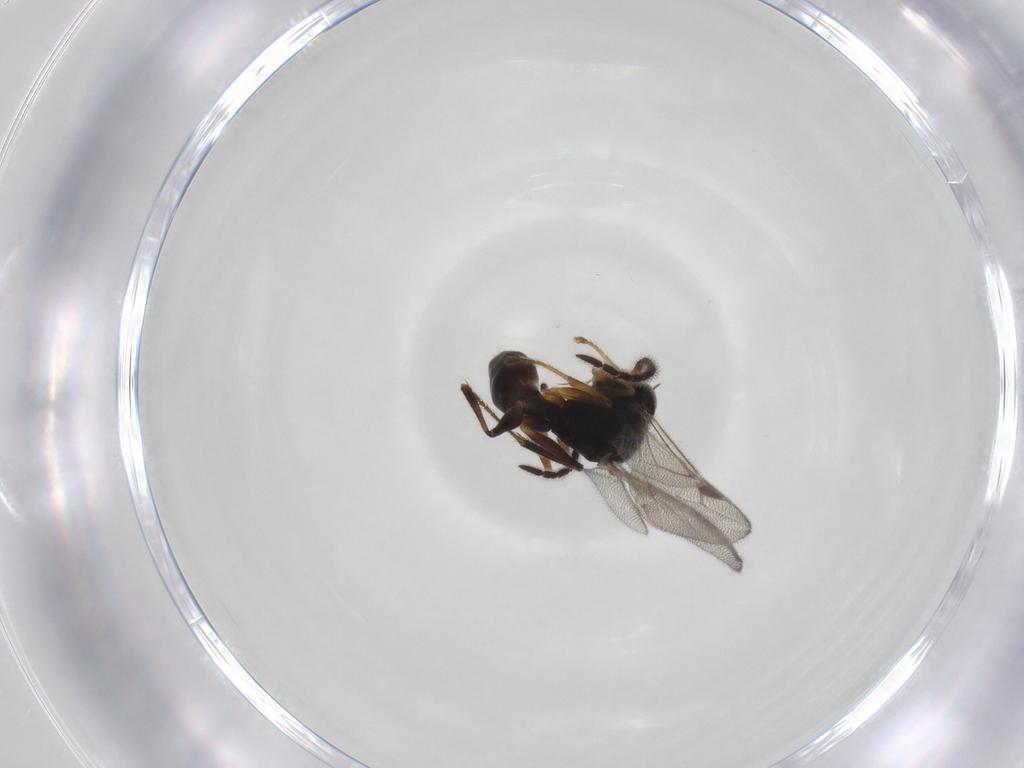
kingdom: Animalia
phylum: Arthropoda
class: Insecta
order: Hymenoptera
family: Dryinidae
